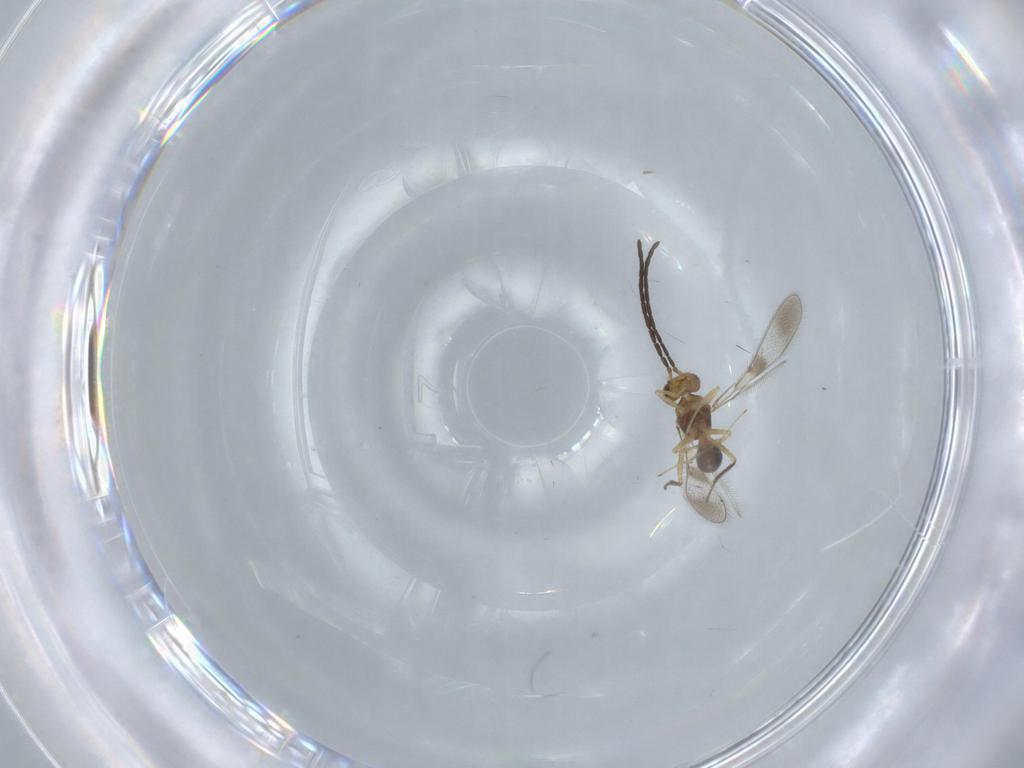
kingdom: Animalia
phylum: Arthropoda
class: Insecta
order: Hymenoptera
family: Mymaridae
